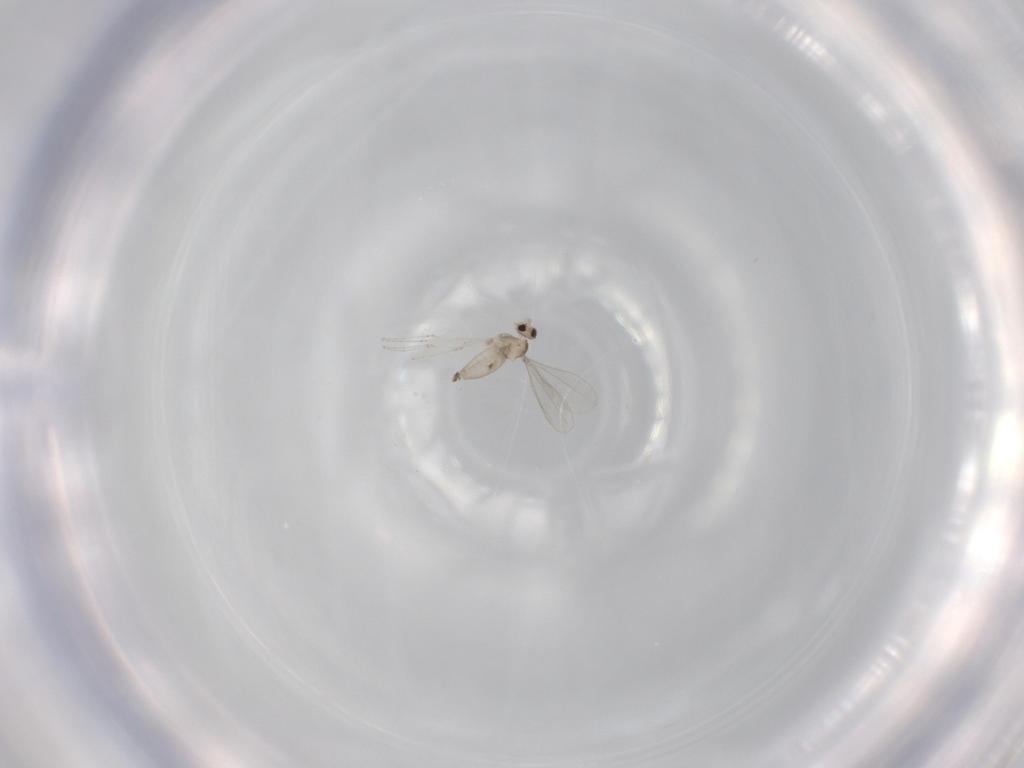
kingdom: Animalia
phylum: Arthropoda
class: Insecta
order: Diptera
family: Cecidomyiidae
